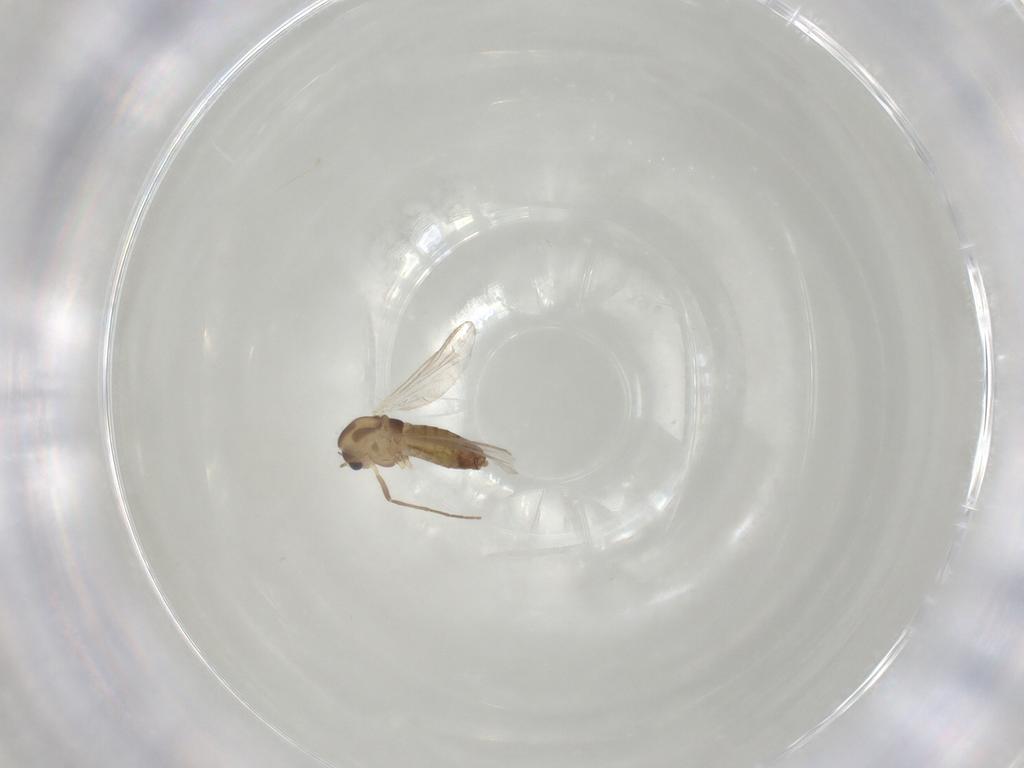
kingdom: Animalia
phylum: Arthropoda
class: Insecta
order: Diptera
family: Chironomidae
